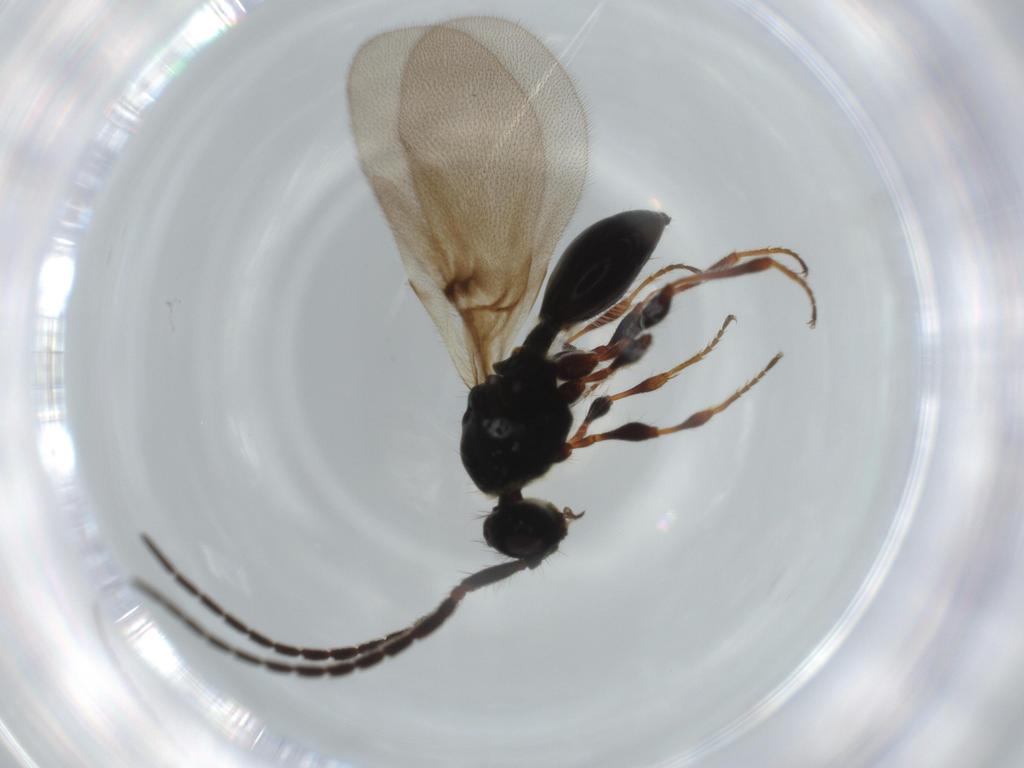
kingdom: Animalia
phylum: Arthropoda
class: Insecta
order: Hymenoptera
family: Diapriidae
